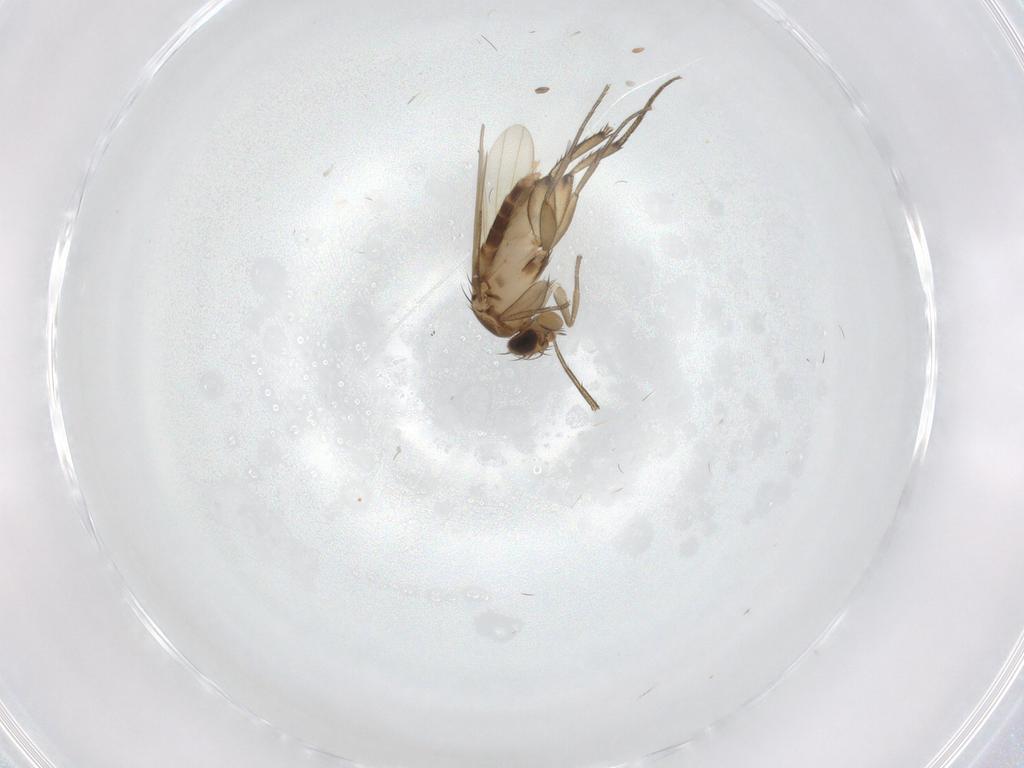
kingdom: Animalia
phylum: Arthropoda
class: Insecta
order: Diptera
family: Phoridae
